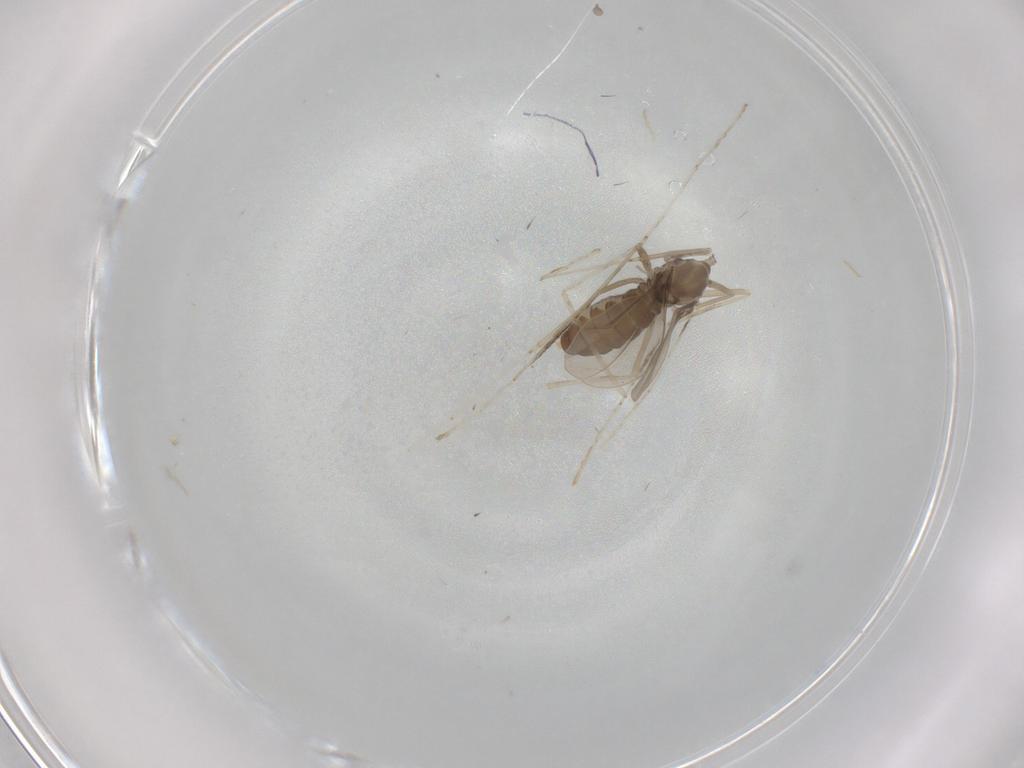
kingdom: Animalia
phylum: Arthropoda
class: Insecta
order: Diptera
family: Cecidomyiidae
